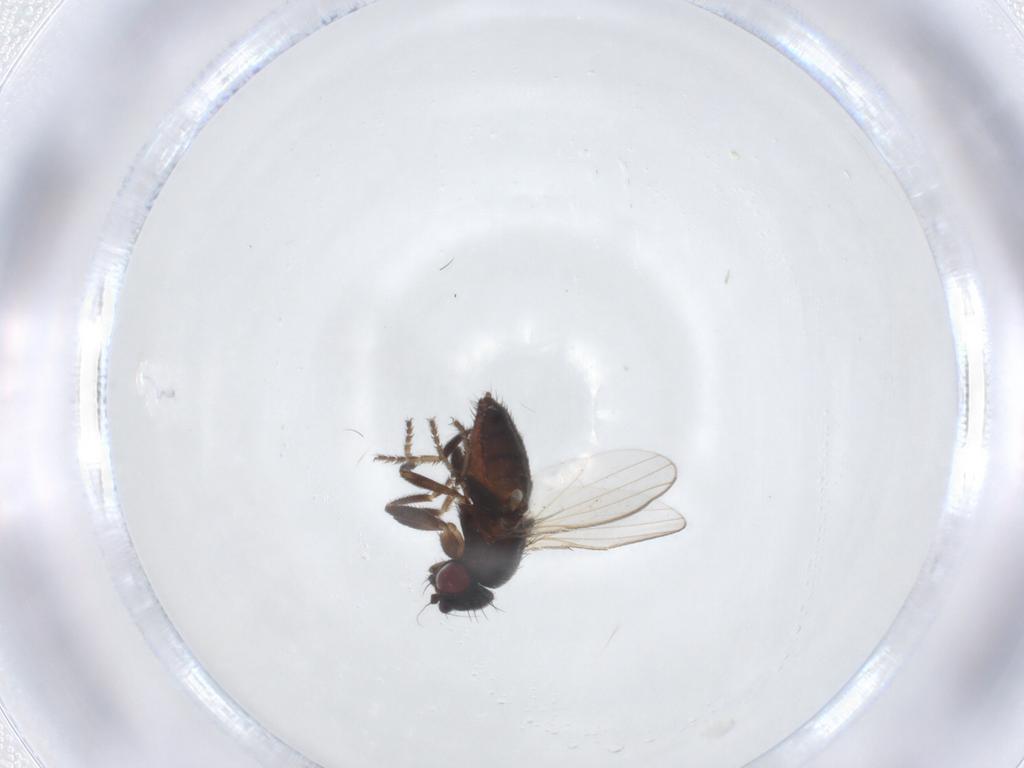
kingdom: Animalia
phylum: Arthropoda
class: Insecta
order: Diptera
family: Milichiidae
